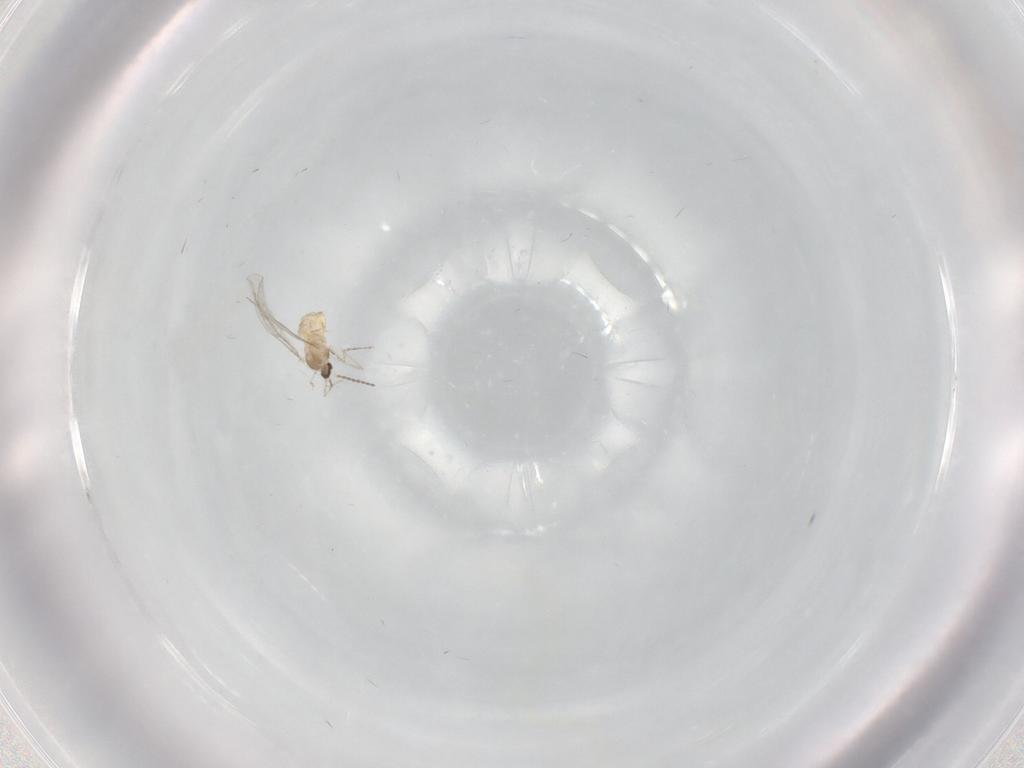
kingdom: Animalia
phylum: Arthropoda
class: Insecta
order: Diptera
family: Cecidomyiidae
